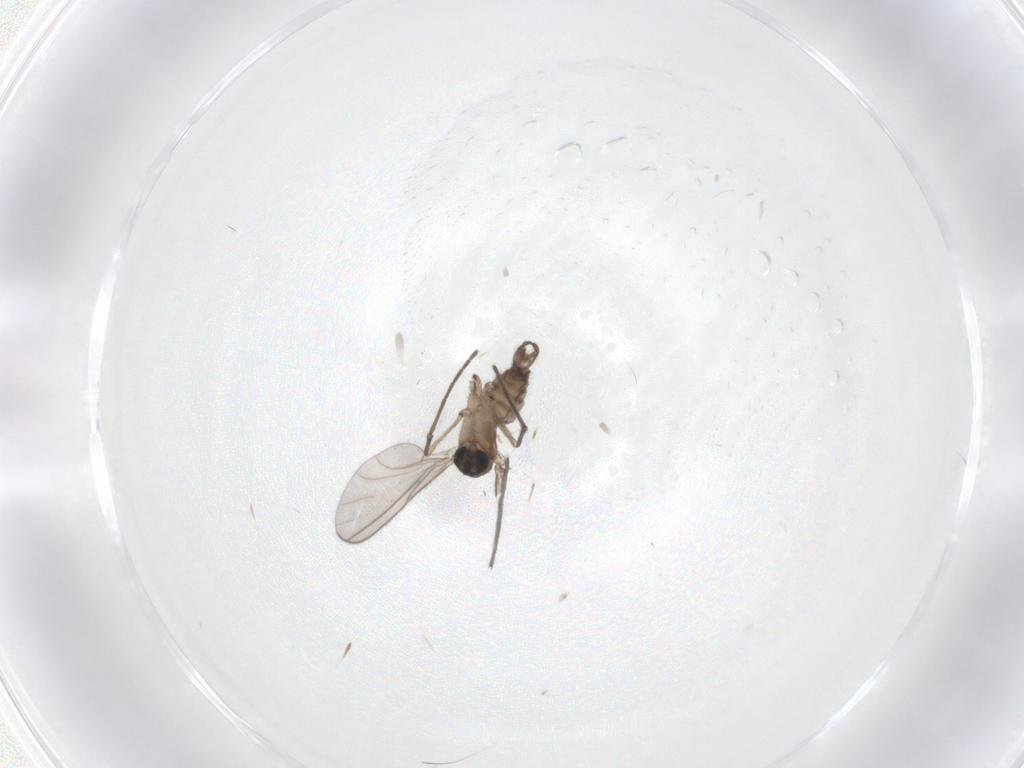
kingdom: Animalia
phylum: Arthropoda
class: Insecta
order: Diptera
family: Sciaridae
